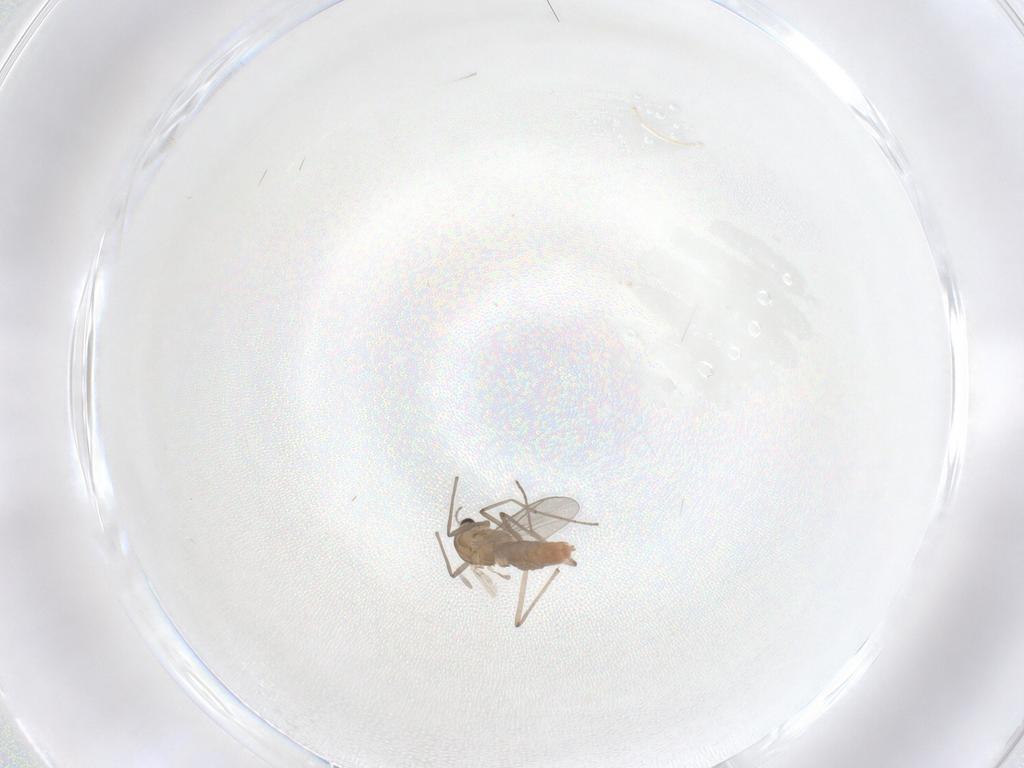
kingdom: Animalia
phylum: Arthropoda
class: Insecta
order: Diptera
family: Chironomidae
